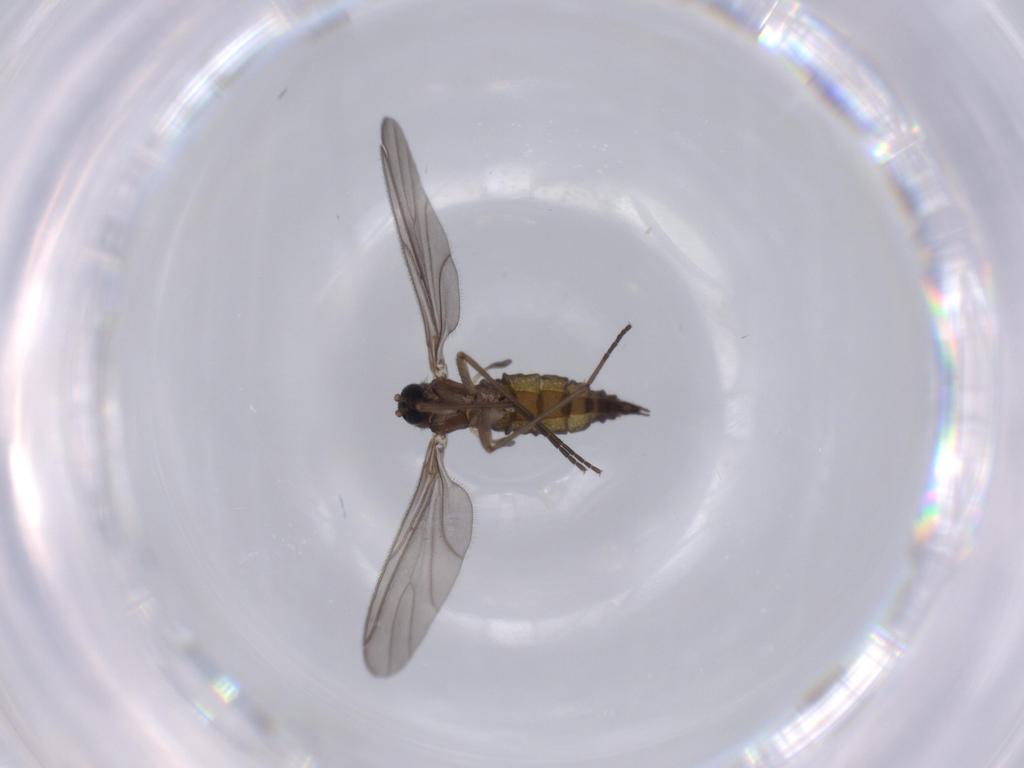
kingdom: Animalia
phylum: Arthropoda
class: Insecta
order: Diptera
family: Sciaridae
